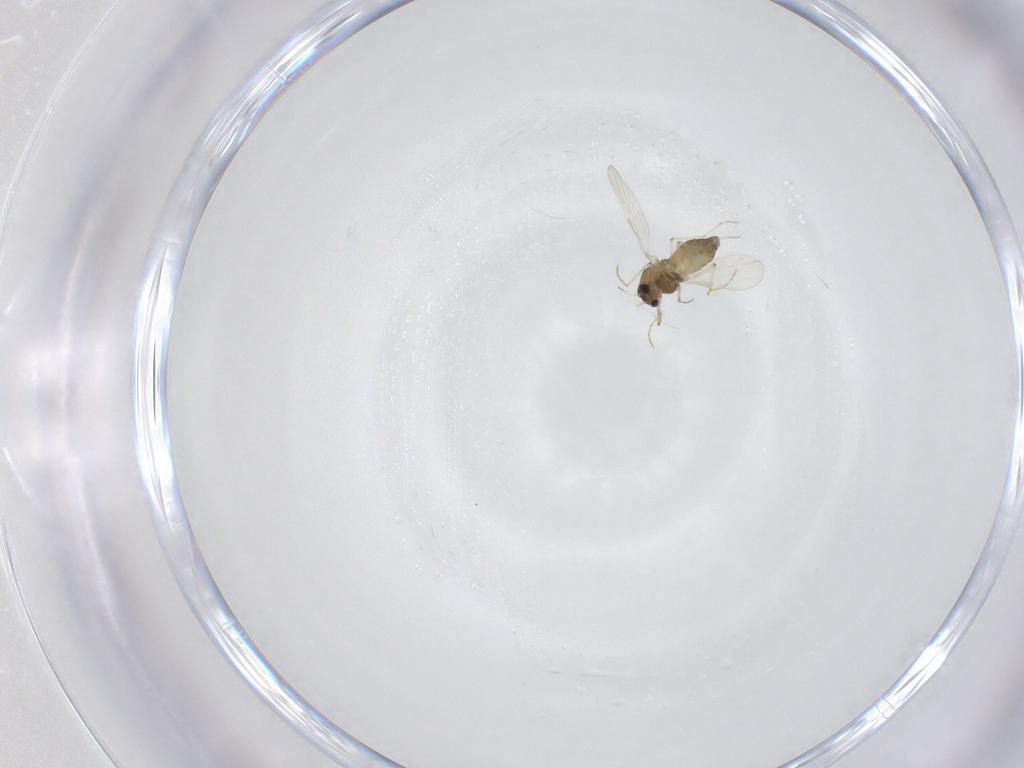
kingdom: Animalia
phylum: Arthropoda
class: Insecta
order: Diptera
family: Chironomidae
